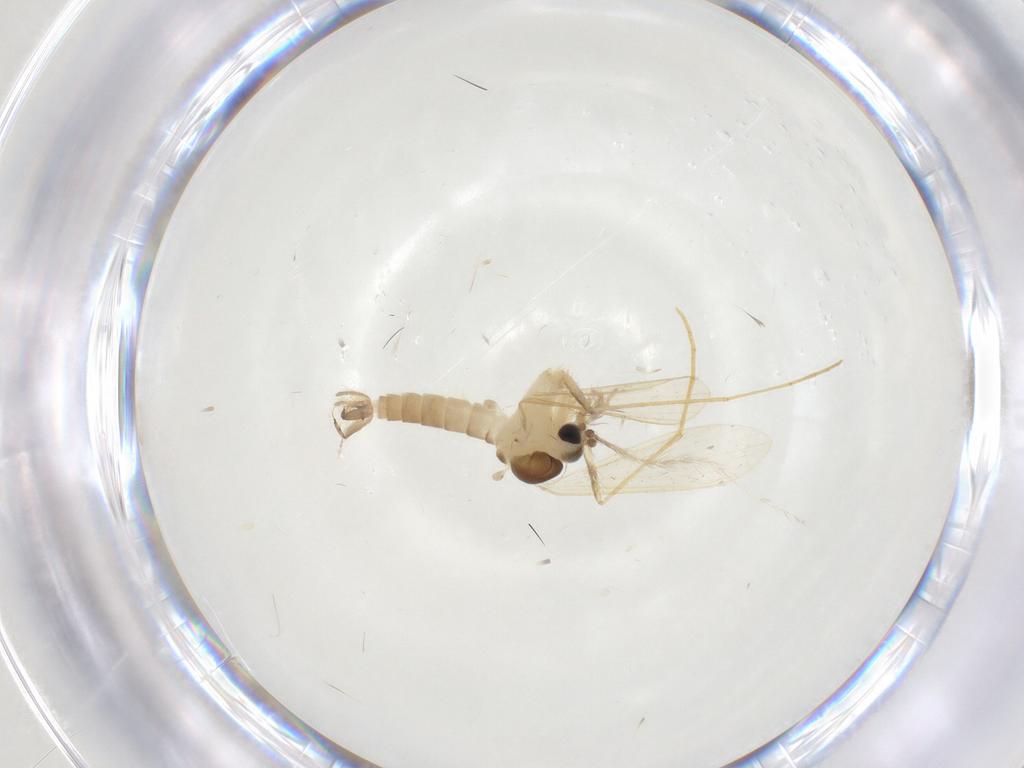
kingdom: Animalia
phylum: Arthropoda
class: Insecta
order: Diptera
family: Psychodidae
